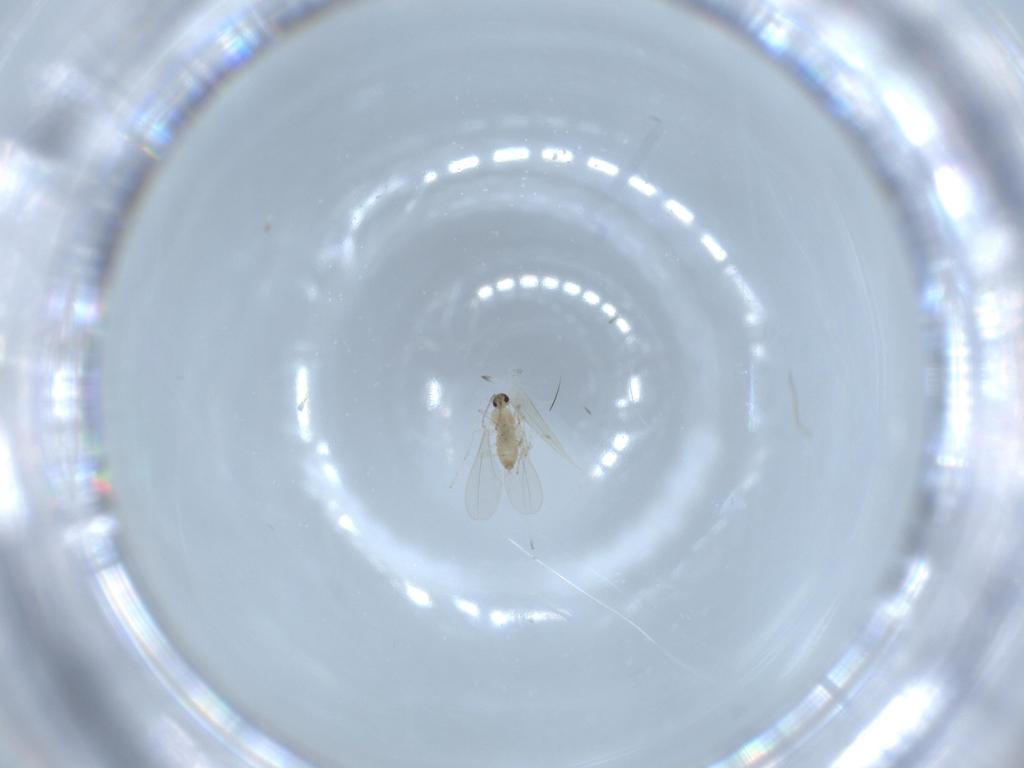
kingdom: Animalia
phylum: Arthropoda
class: Insecta
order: Diptera
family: Cecidomyiidae
